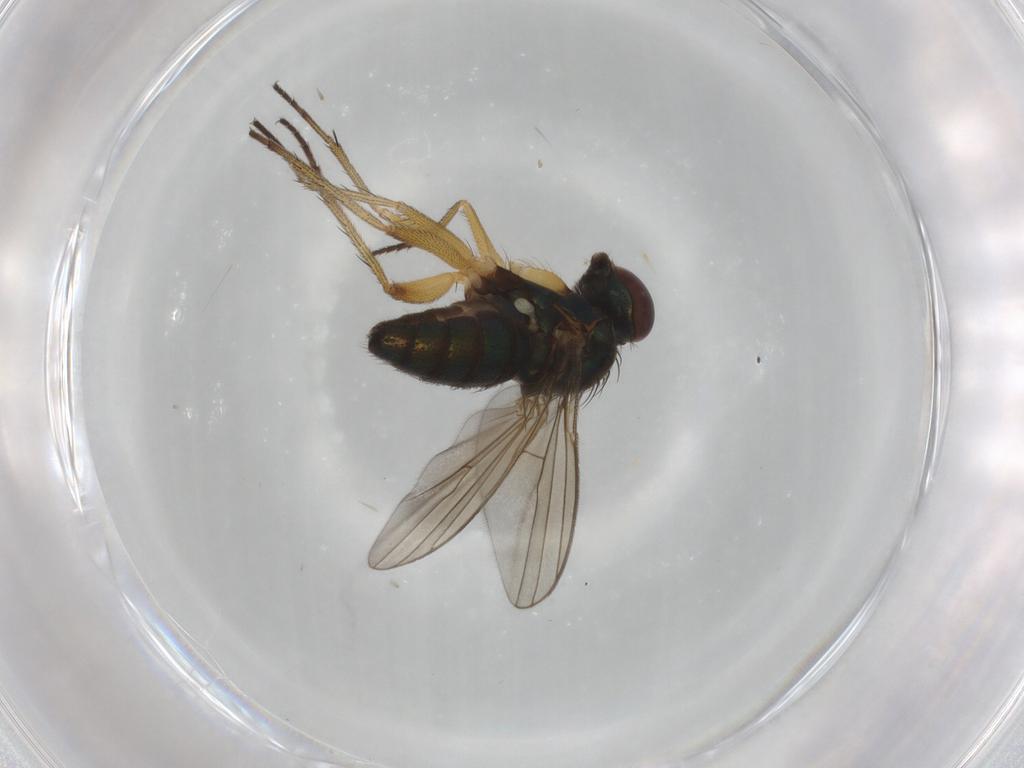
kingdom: Animalia
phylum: Arthropoda
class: Insecta
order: Diptera
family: Dolichopodidae
